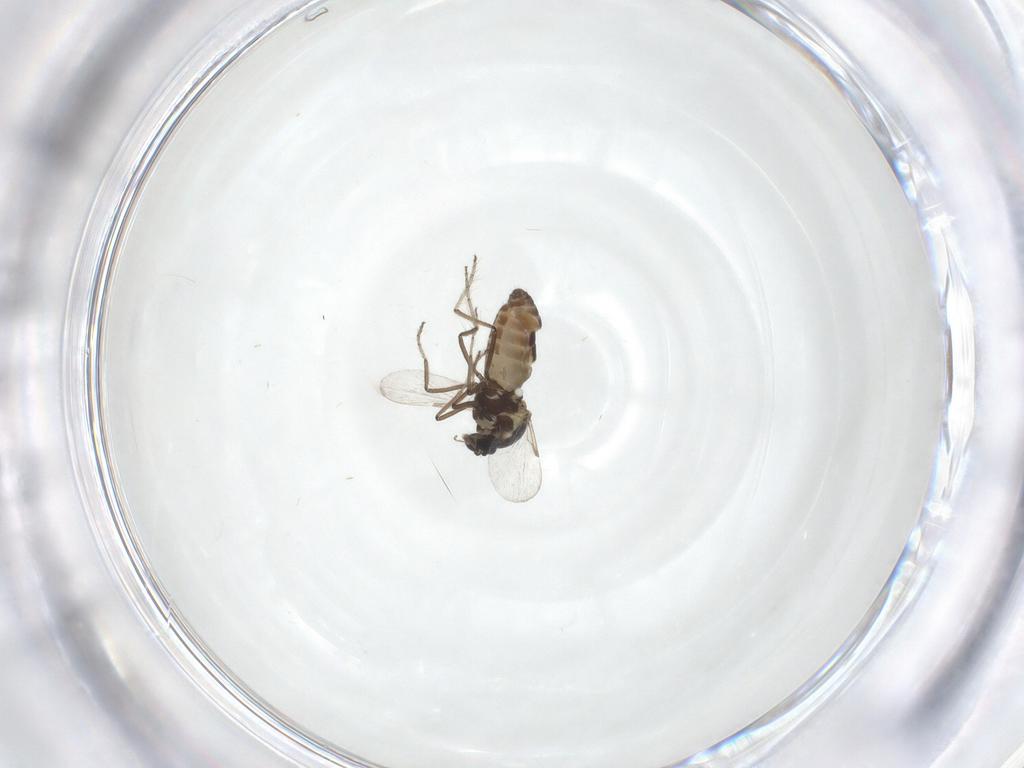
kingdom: Animalia
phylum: Arthropoda
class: Insecta
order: Diptera
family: Ceratopogonidae
